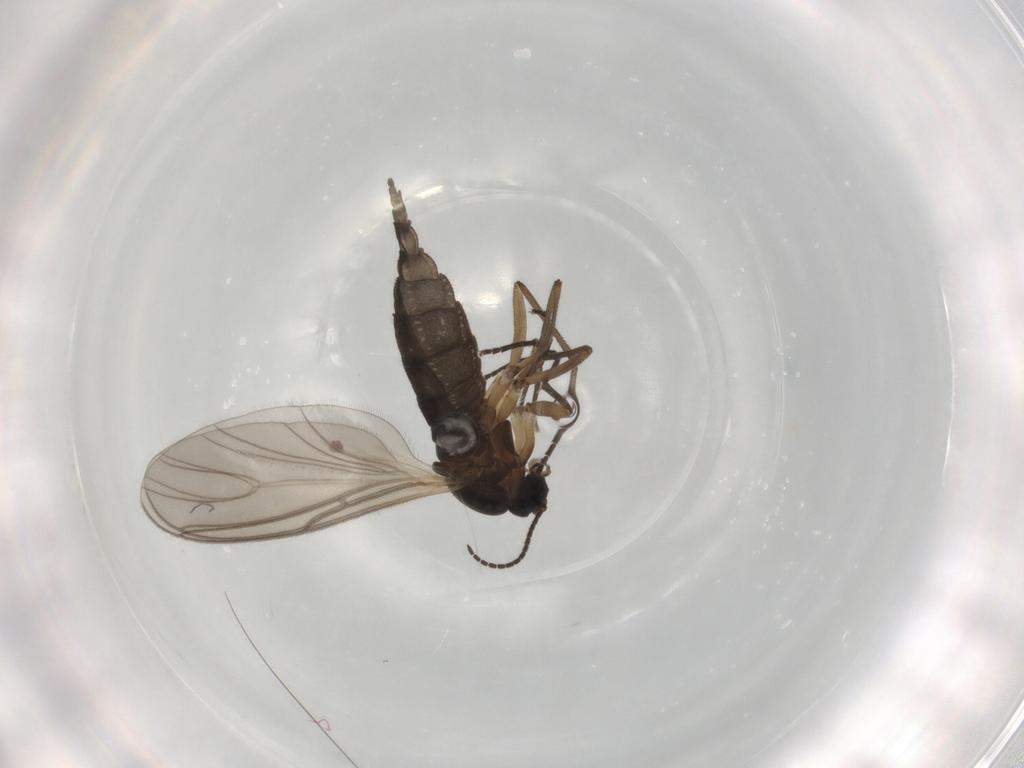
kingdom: Animalia
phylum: Arthropoda
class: Insecta
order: Diptera
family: Sciaridae
